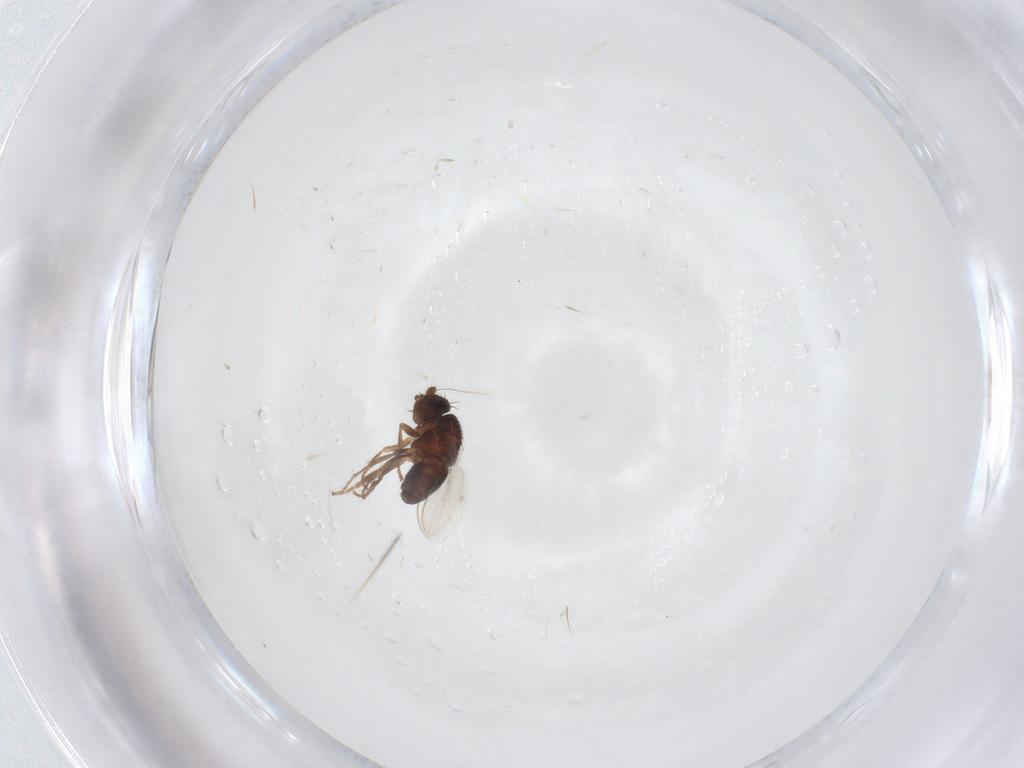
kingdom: Animalia
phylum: Arthropoda
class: Insecta
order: Diptera
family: Sphaeroceridae
